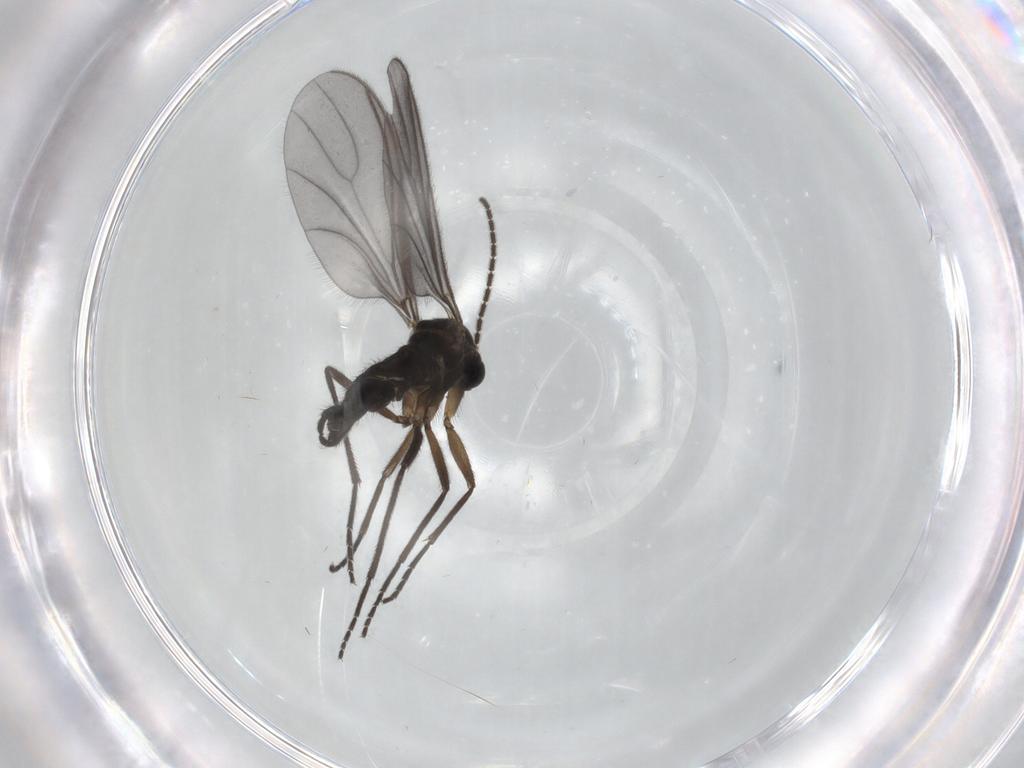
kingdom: Animalia
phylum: Arthropoda
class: Insecta
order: Diptera
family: Sciaridae
